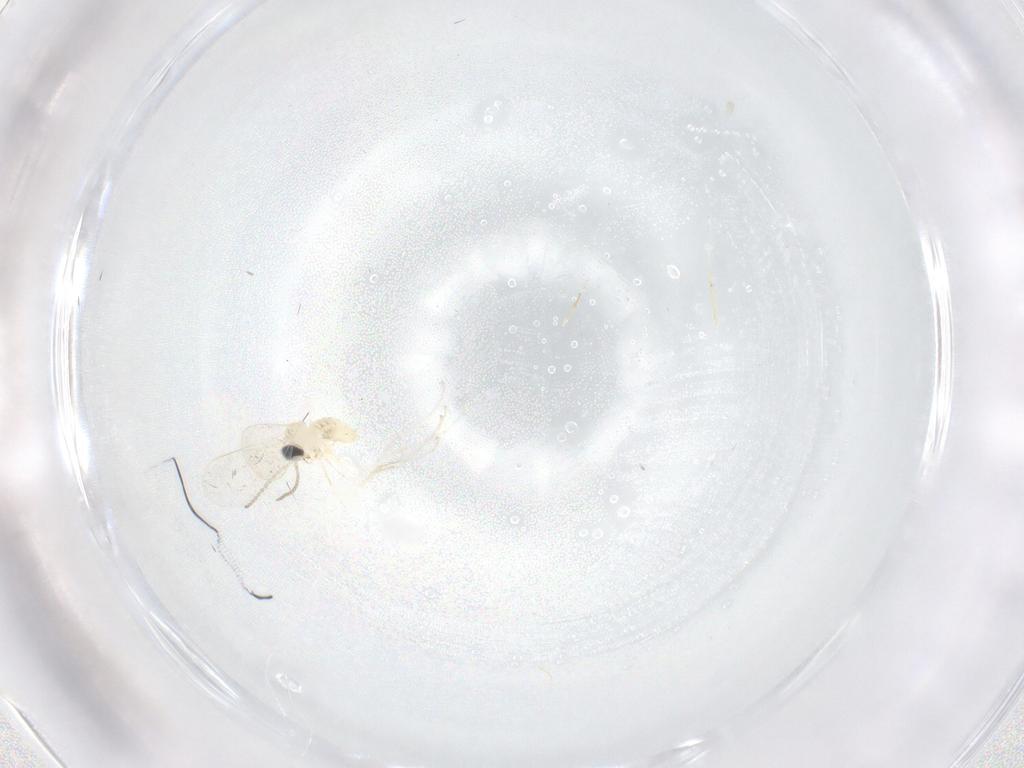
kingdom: Animalia
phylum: Arthropoda
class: Insecta
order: Diptera
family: Cecidomyiidae
